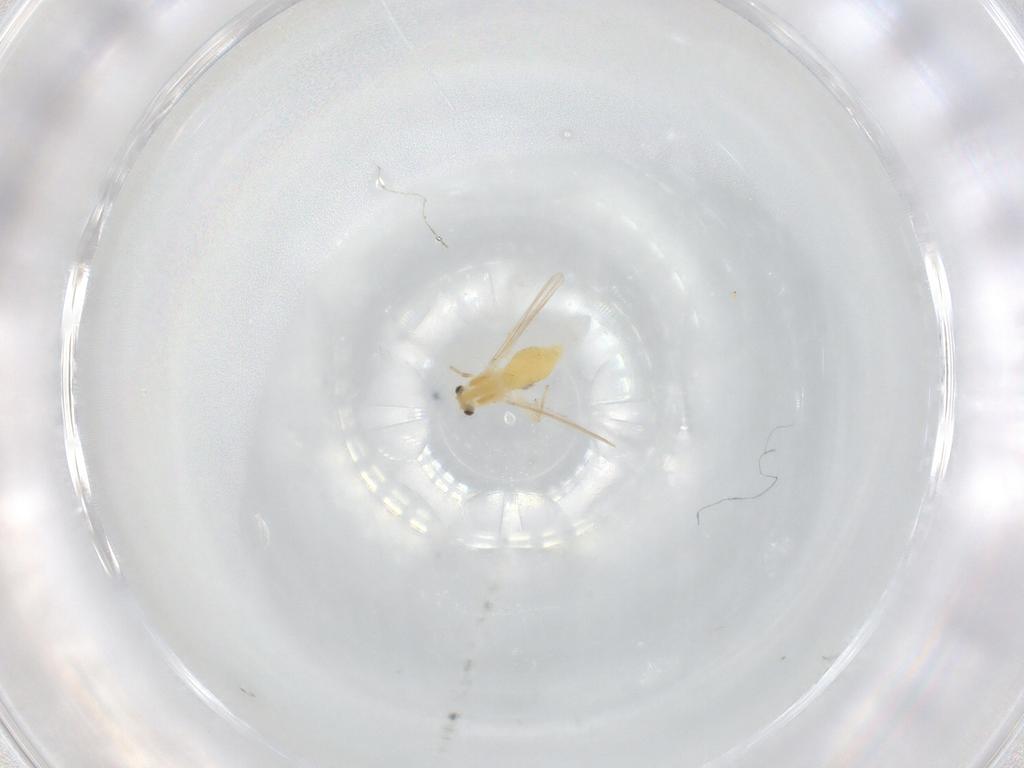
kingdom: Animalia
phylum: Arthropoda
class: Insecta
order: Diptera
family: Chironomidae
